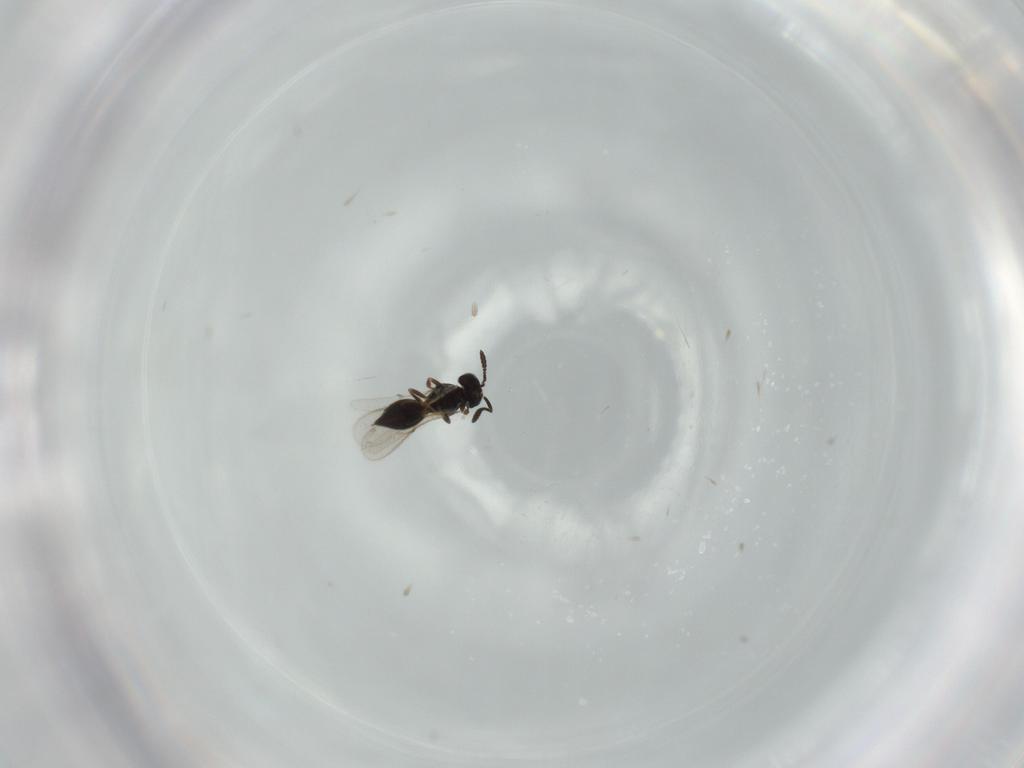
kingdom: Animalia
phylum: Arthropoda
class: Insecta
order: Hymenoptera
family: Scelionidae
